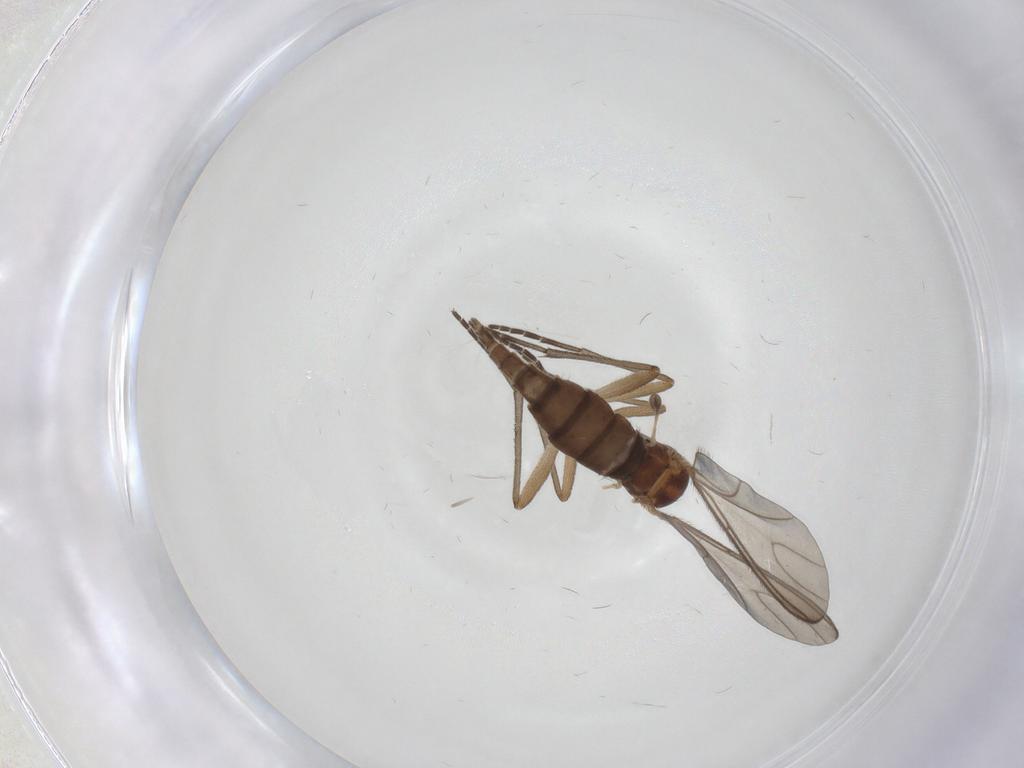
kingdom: Animalia
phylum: Arthropoda
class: Insecta
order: Diptera
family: Sciaridae
